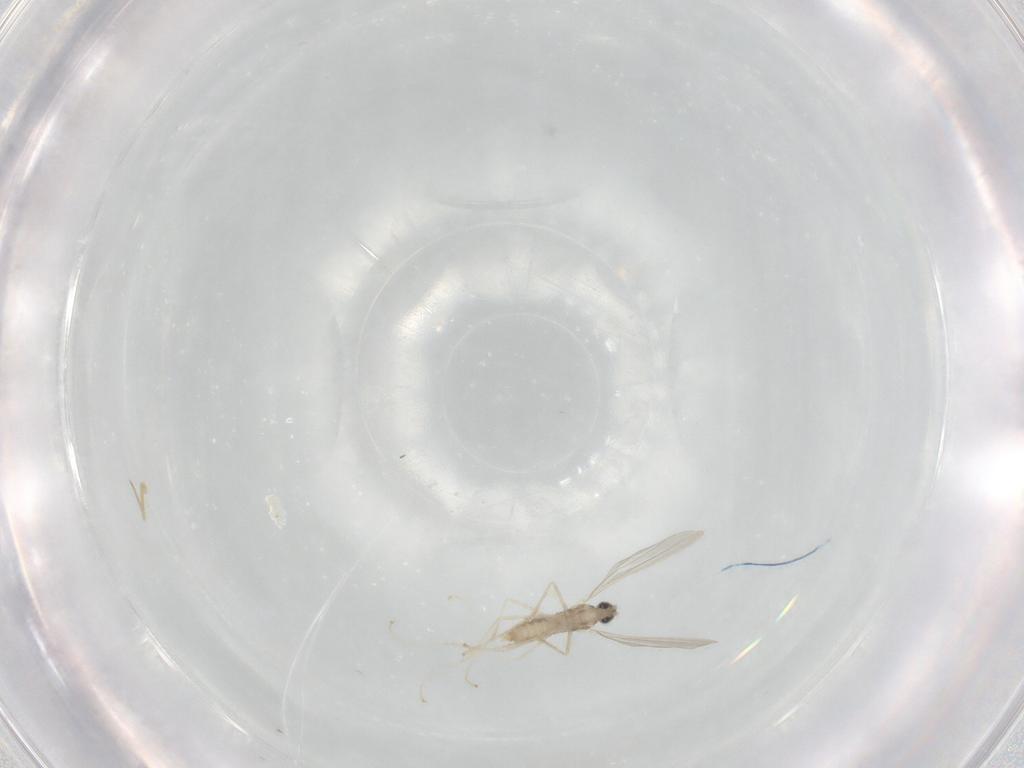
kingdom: Animalia
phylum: Arthropoda
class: Insecta
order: Diptera
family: Cecidomyiidae
